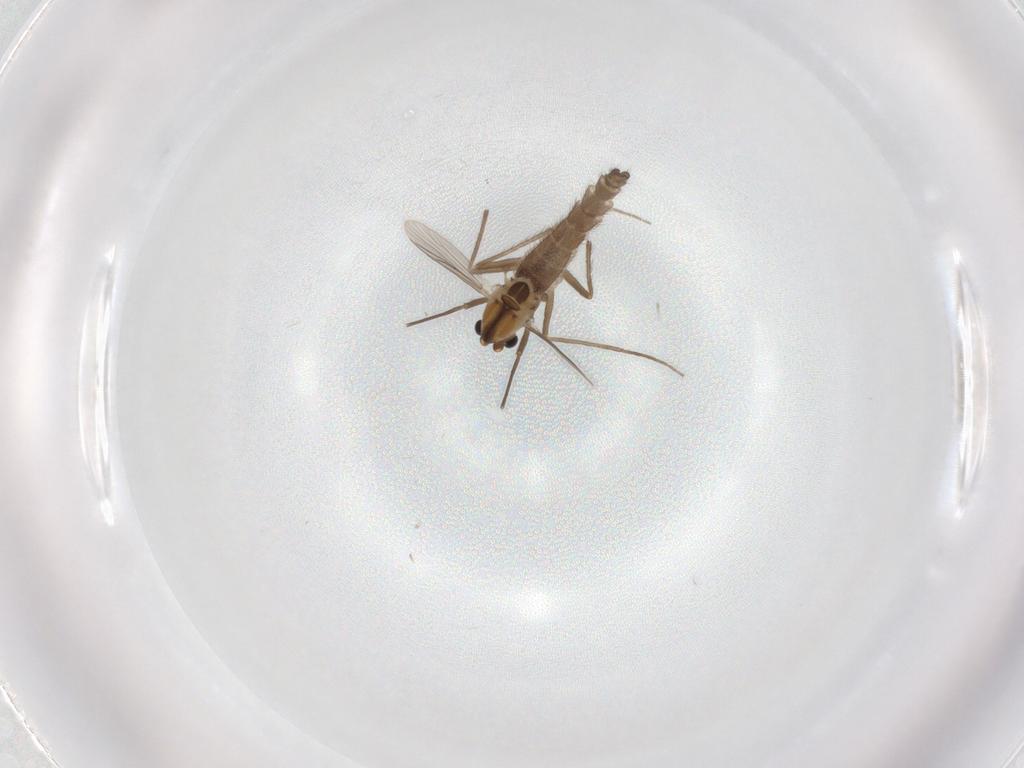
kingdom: Animalia
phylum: Arthropoda
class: Insecta
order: Diptera
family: Chironomidae
